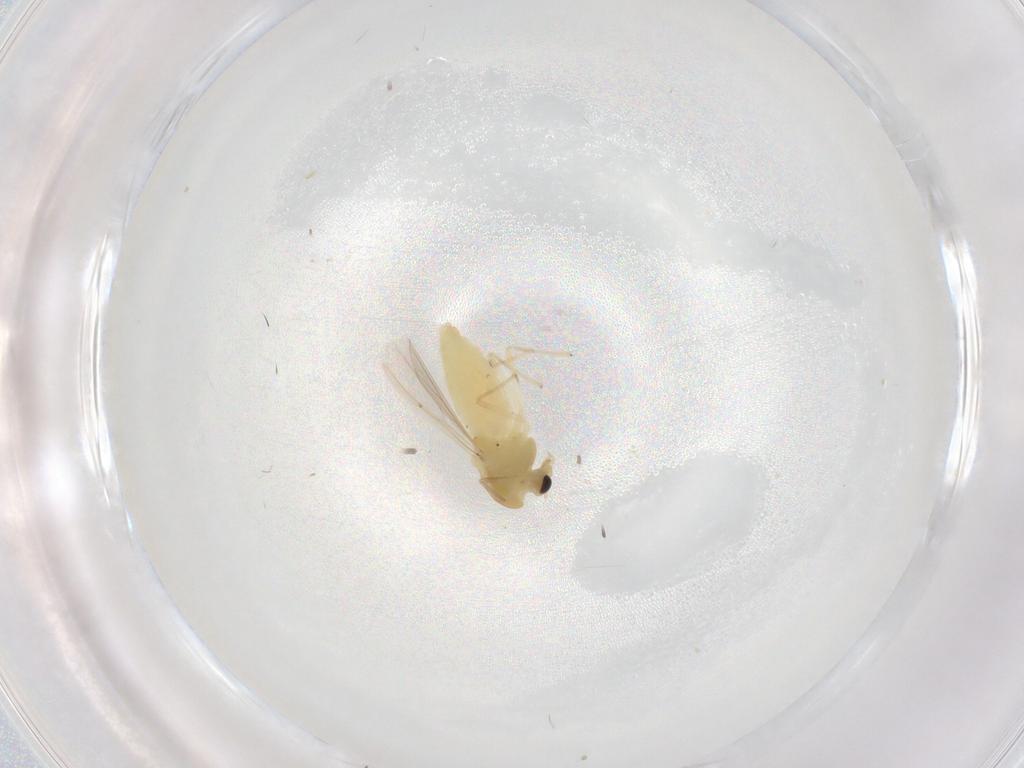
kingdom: Animalia
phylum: Arthropoda
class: Insecta
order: Diptera
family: Chironomidae
